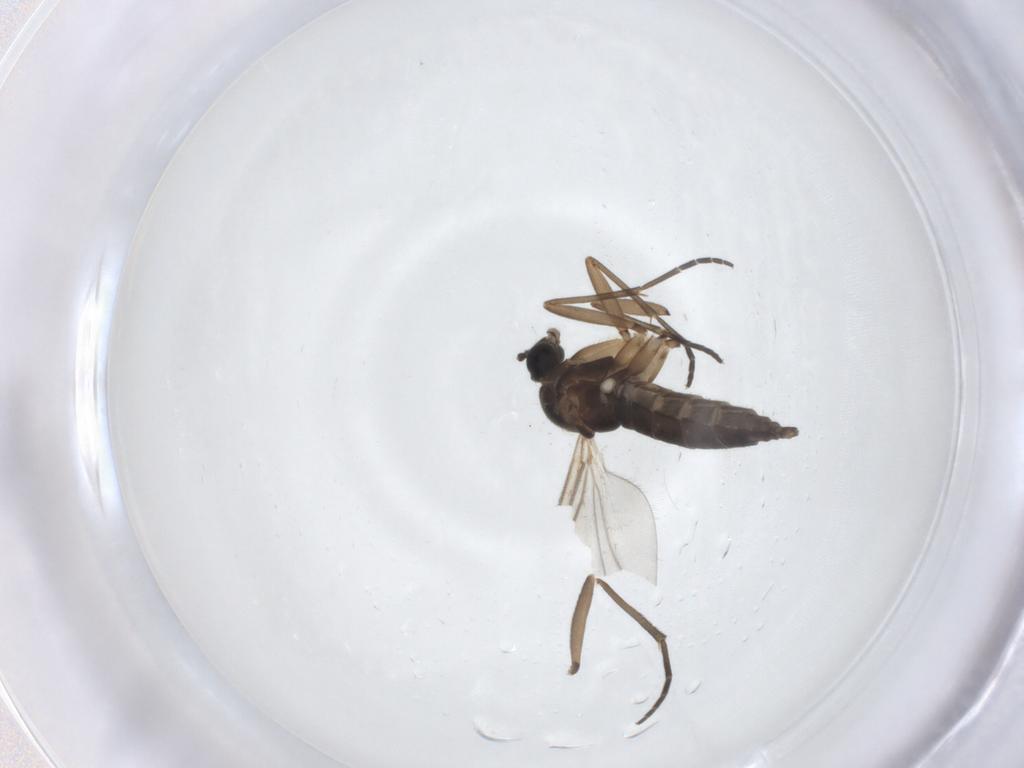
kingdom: Animalia
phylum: Arthropoda
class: Insecta
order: Diptera
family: Sciaridae
